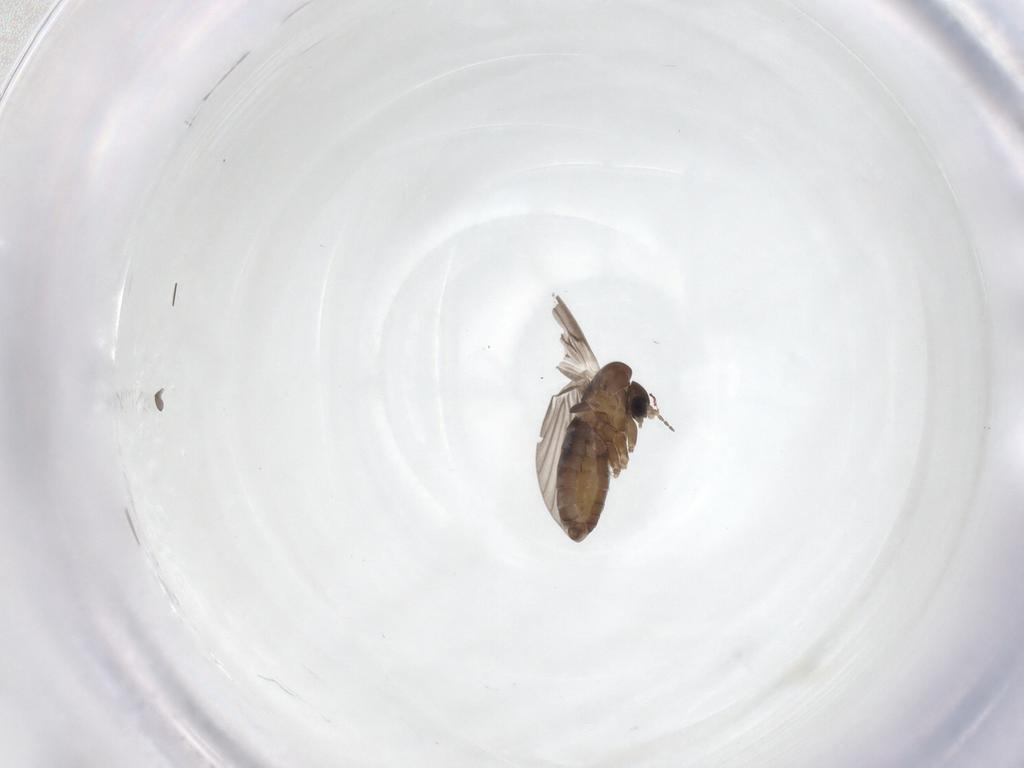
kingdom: Animalia
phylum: Arthropoda
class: Insecta
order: Diptera
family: Psychodidae
